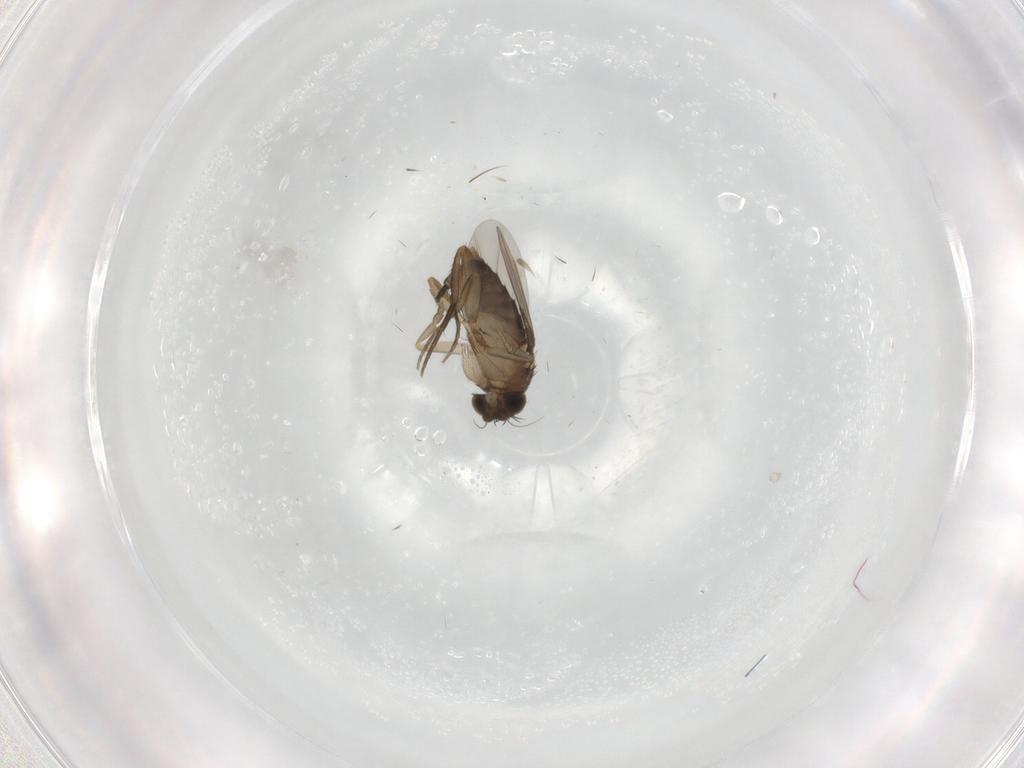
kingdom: Animalia
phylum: Arthropoda
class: Insecta
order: Diptera
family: Phoridae
